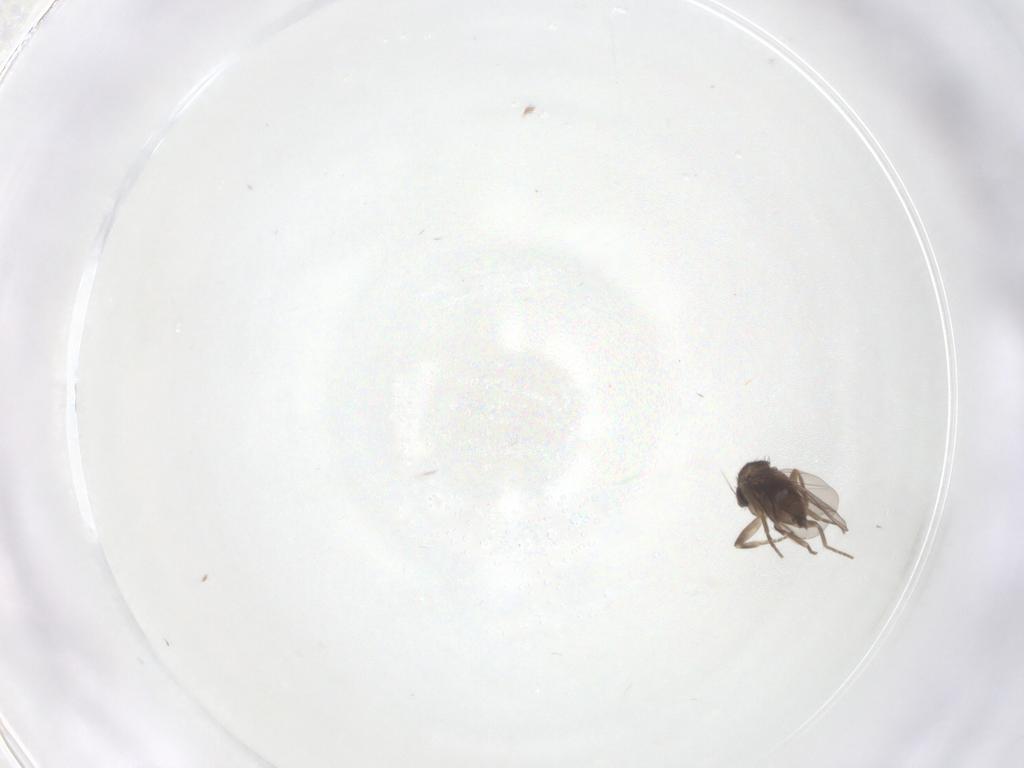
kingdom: Animalia
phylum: Arthropoda
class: Insecta
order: Diptera
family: Phoridae
